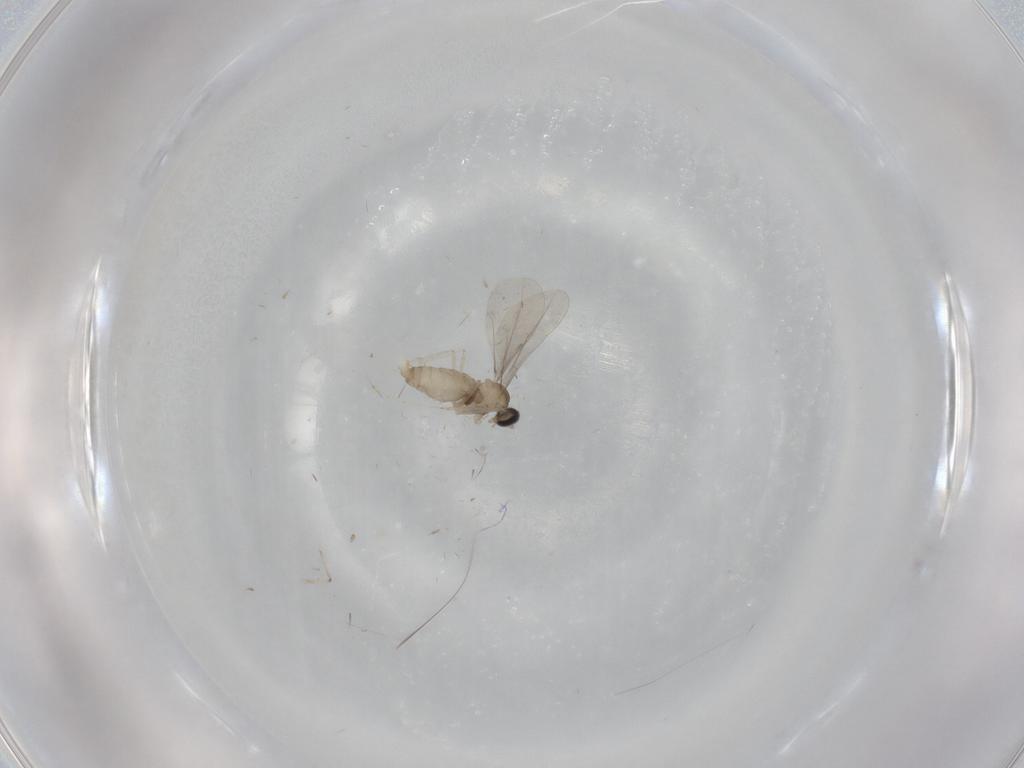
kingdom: Animalia
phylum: Arthropoda
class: Insecta
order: Diptera
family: Cecidomyiidae
